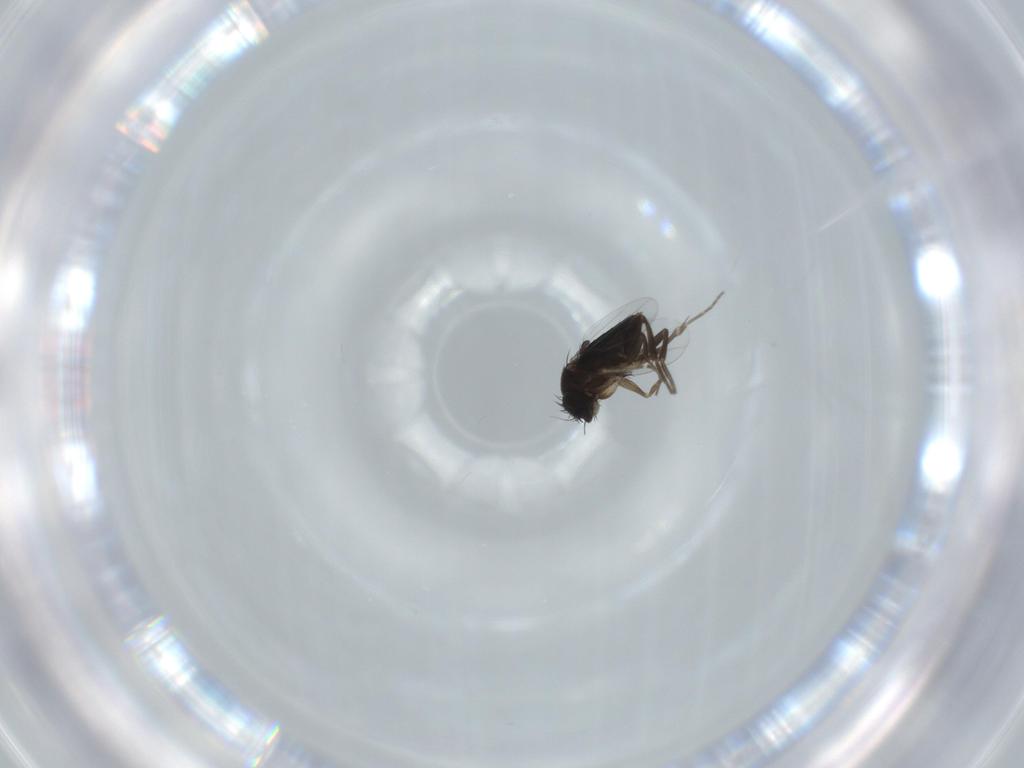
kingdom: Animalia
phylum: Arthropoda
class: Insecta
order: Diptera
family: Phoridae
